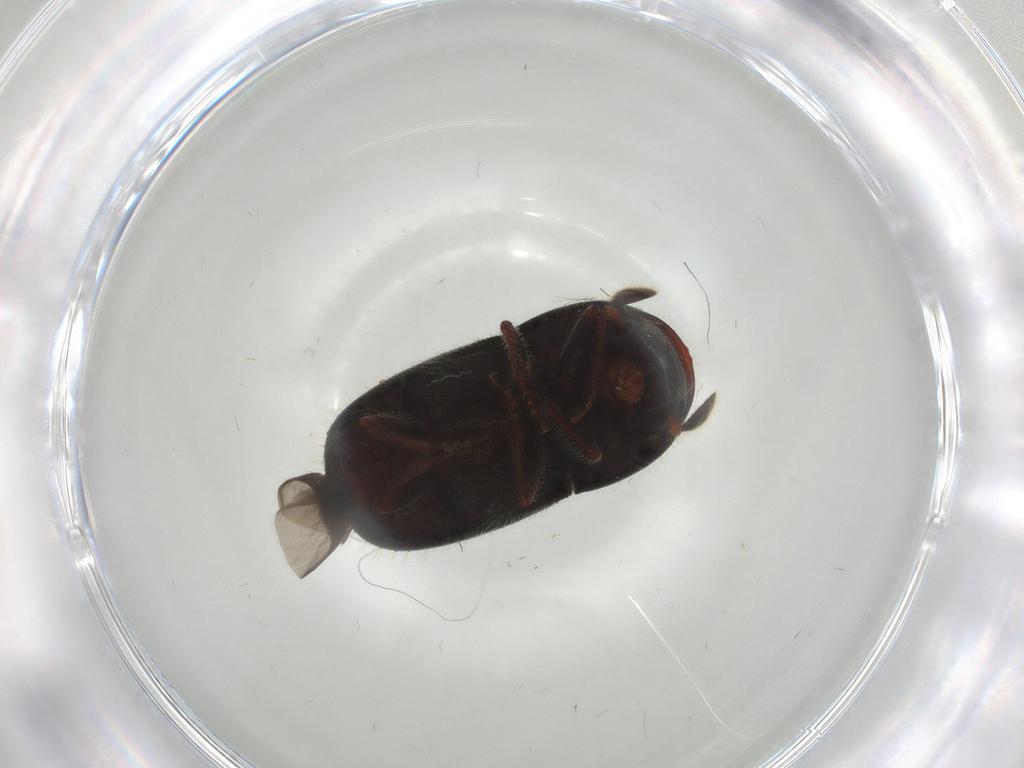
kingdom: Animalia
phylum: Arthropoda
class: Insecta
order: Coleoptera
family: Curculionidae
